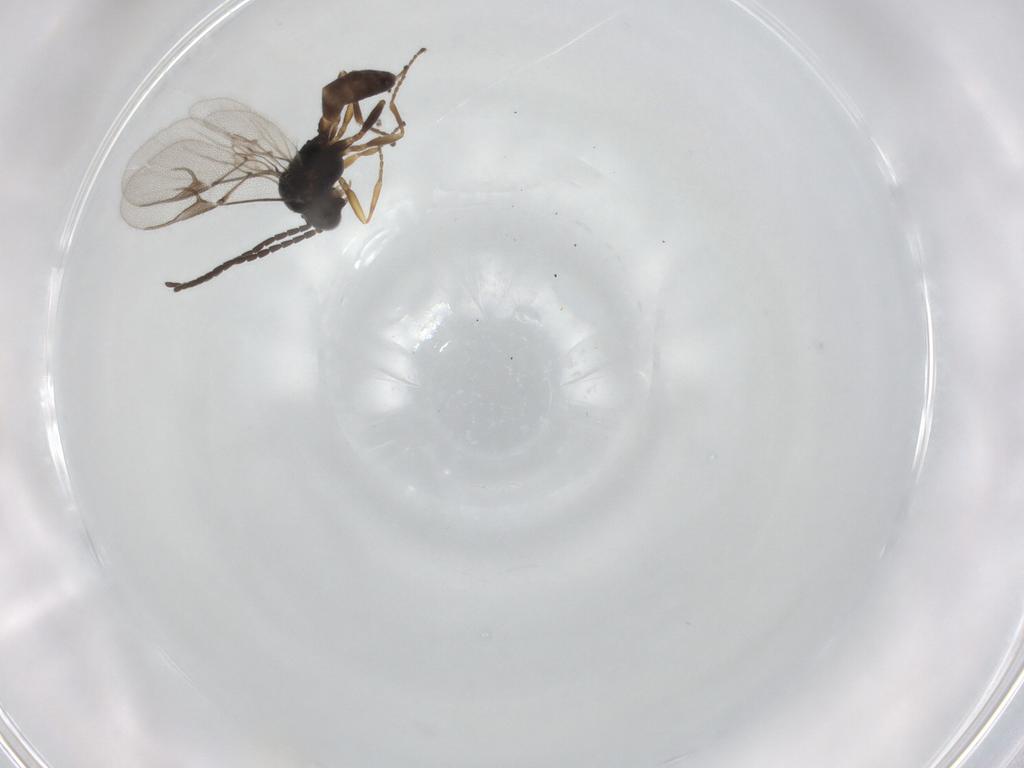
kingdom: Animalia
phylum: Arthropoda
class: Insecta
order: Hymenoptera
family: Braconidae
